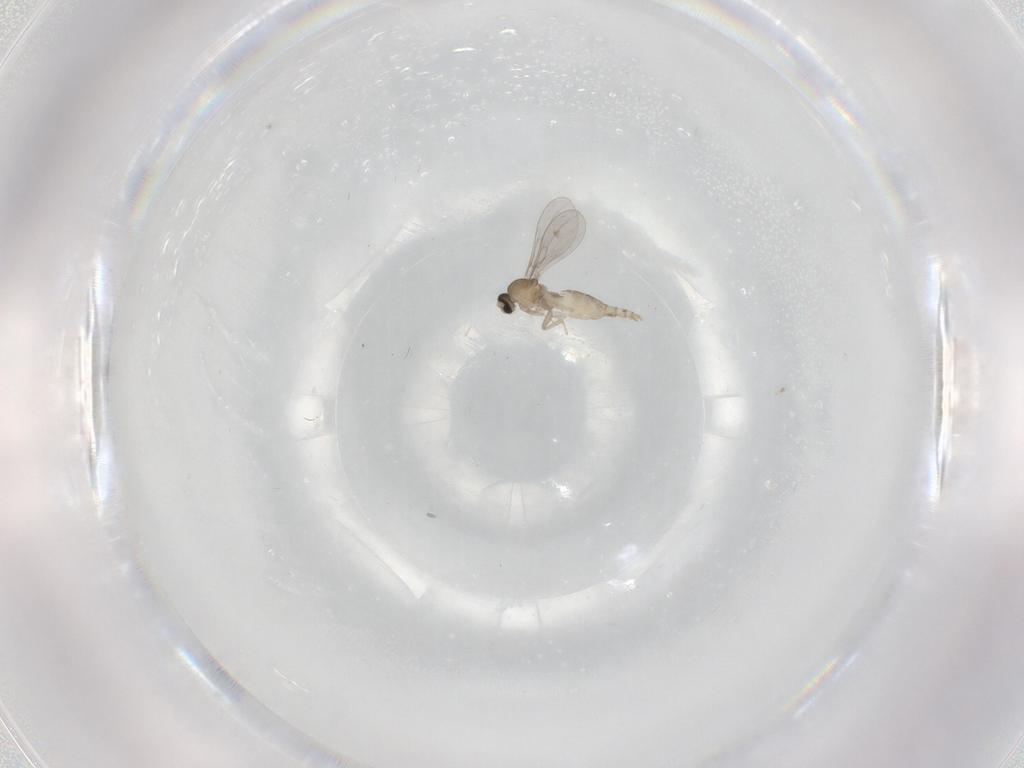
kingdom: Animalia
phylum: Arthropoda
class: Insecta
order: Diptera
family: Cecidomyiidae
